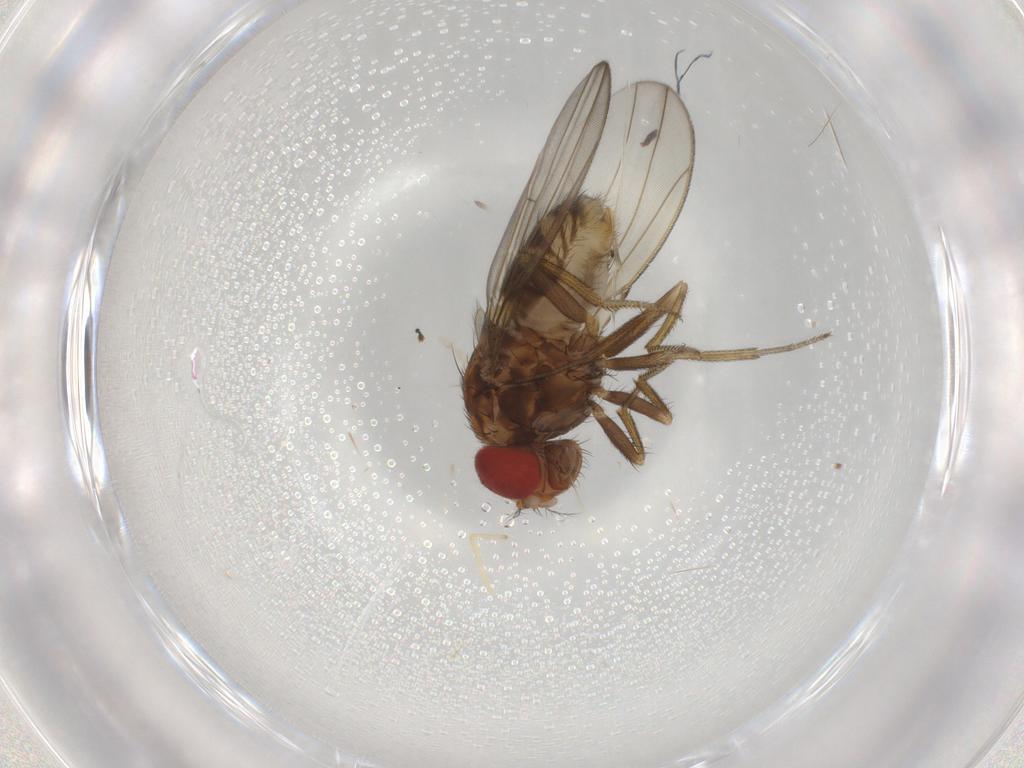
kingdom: Animalia
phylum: Arthropoda
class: Insecta
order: Diptera
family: Drosophilidae
